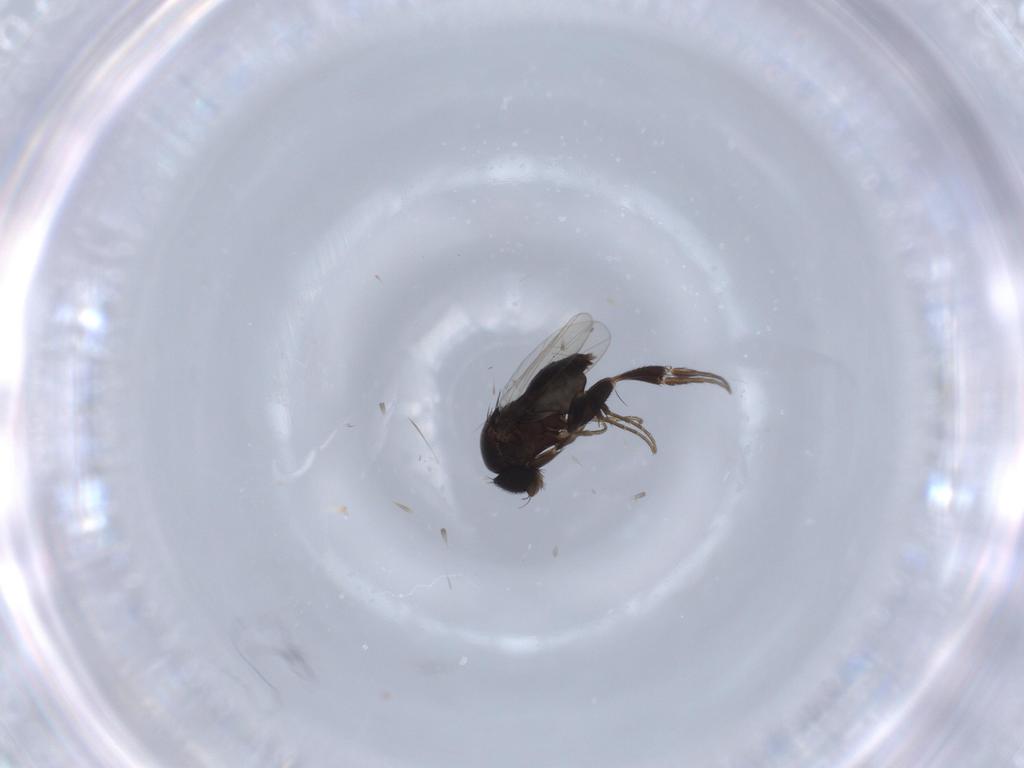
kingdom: Animalia
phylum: Arthropoda
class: Insecta
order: Diptera
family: Phoridae
